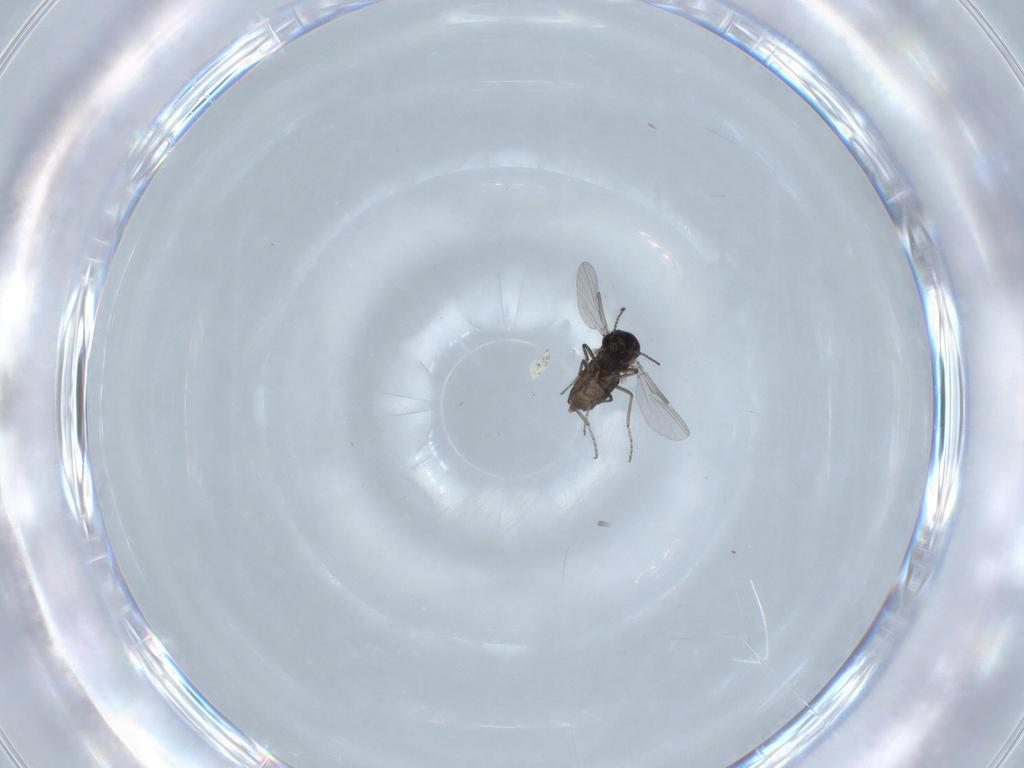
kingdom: Animalia
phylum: Arthropoda
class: Insecta
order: Diptera
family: Ceratopogonidae
